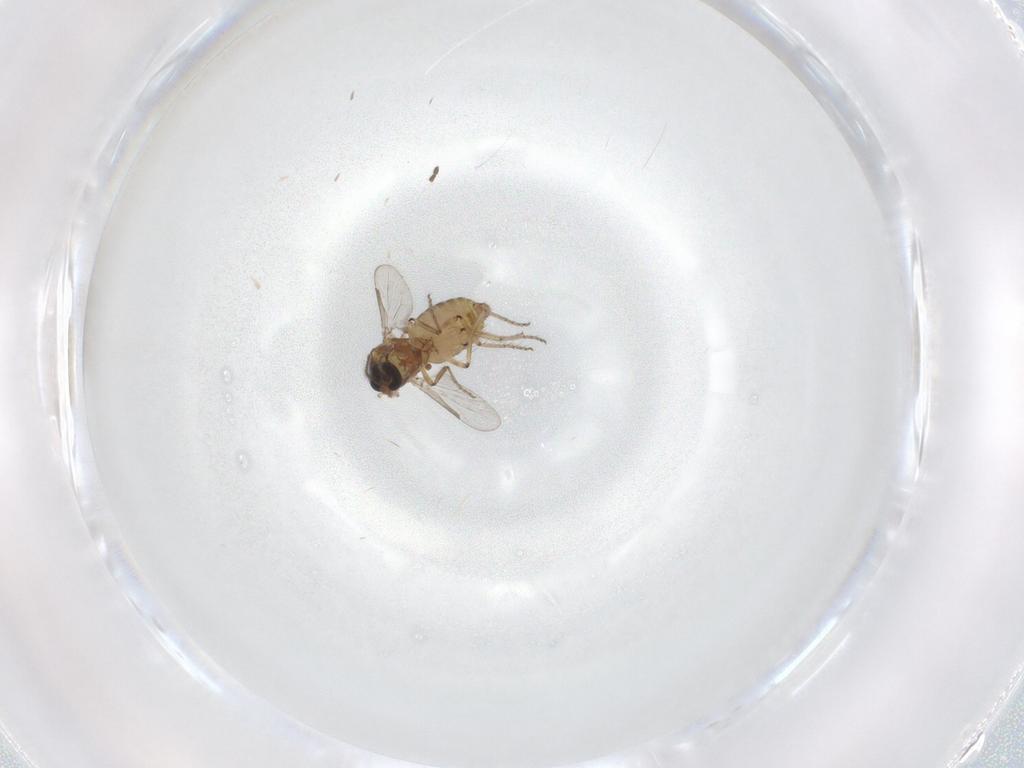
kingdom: Animalia
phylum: Arthropoda
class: Insecta
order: Diptera
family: Ceratopogonidae
